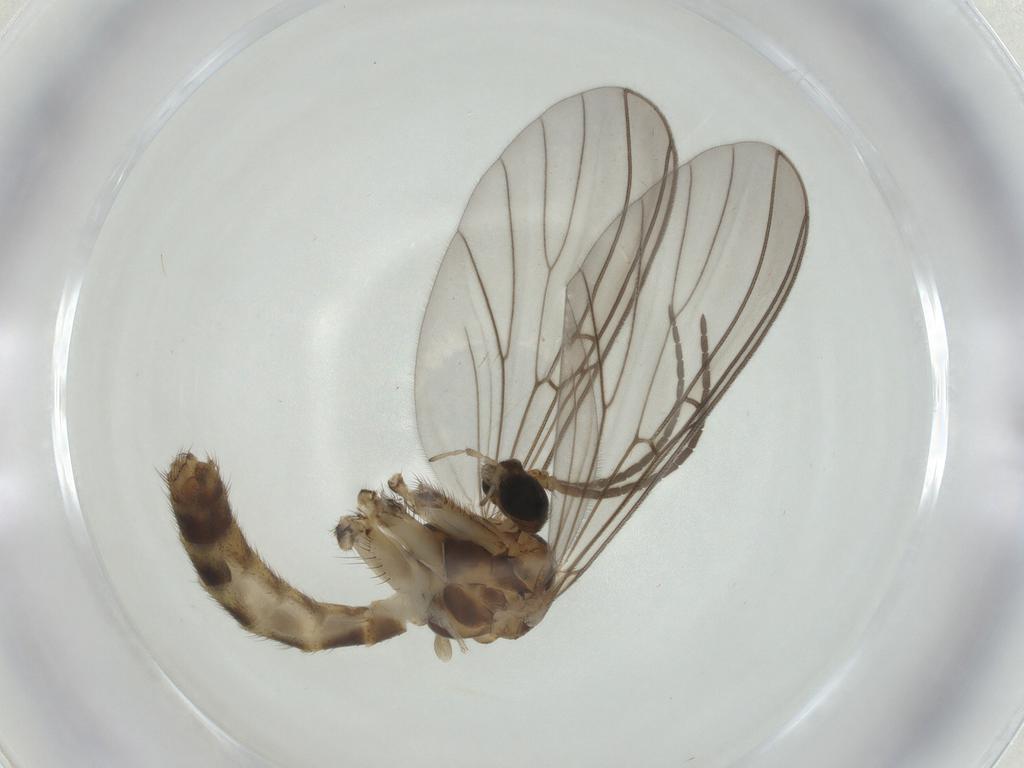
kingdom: Animalia
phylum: Arthropoda
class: Insecta
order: Diptera
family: Mycetophilidae
